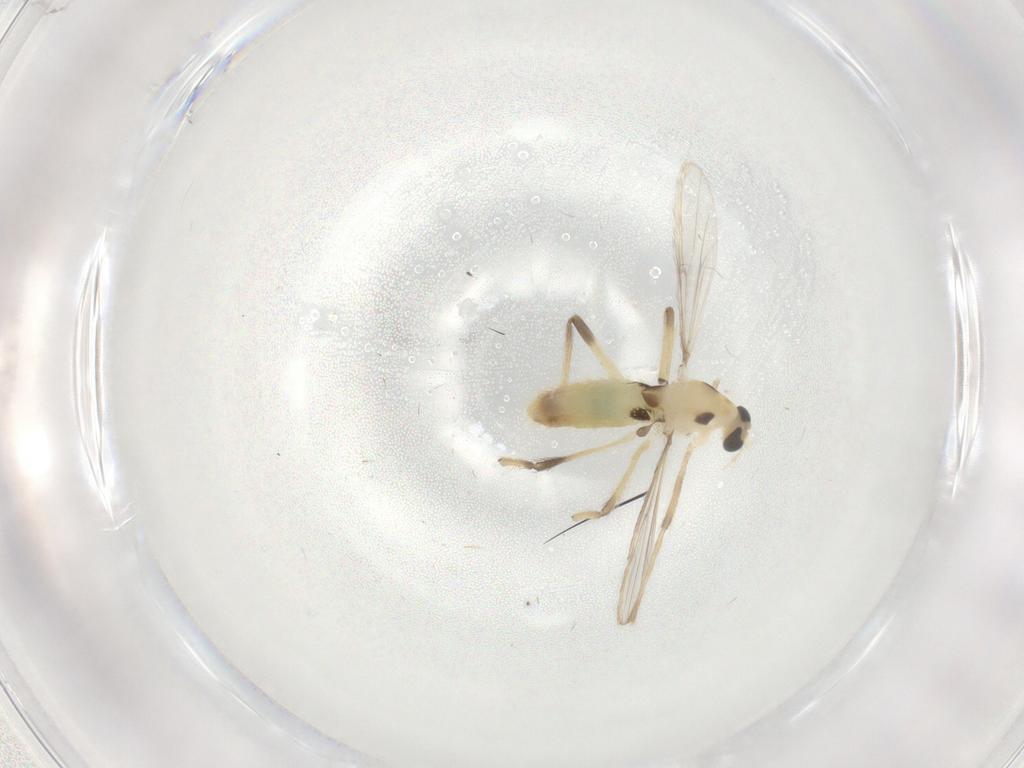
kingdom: Animalia
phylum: Arthropoda
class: Insecta
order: Diptera
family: Chironomidae
